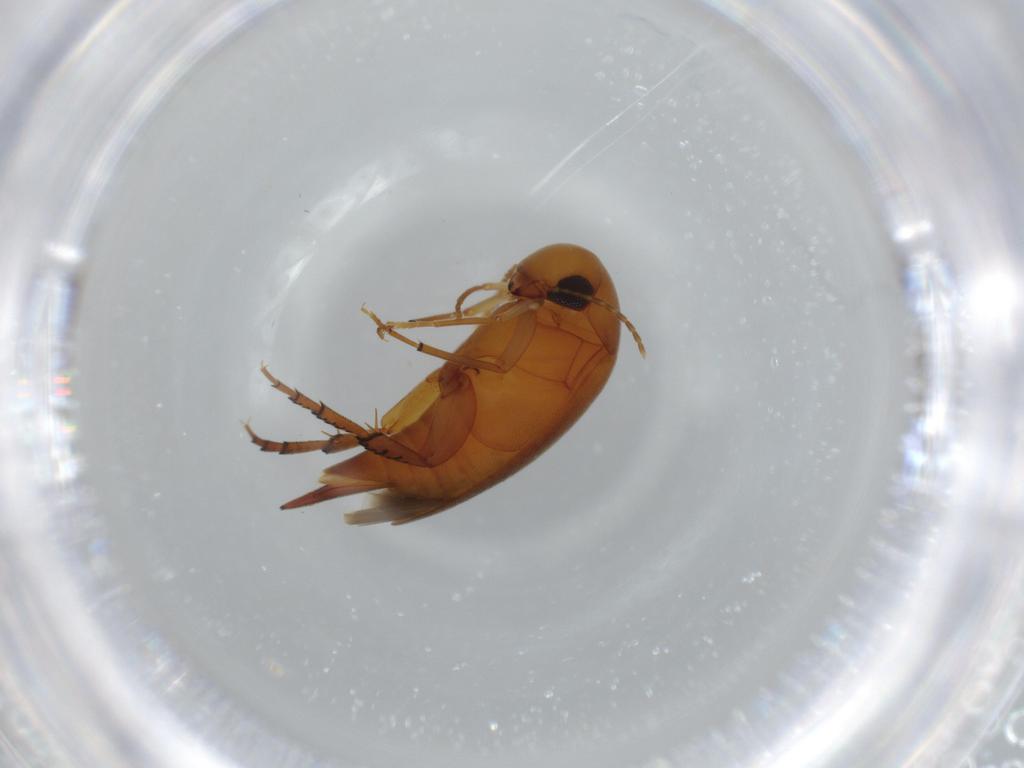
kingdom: Animalia
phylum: Arthropoda
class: Insecta
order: Coleoptera
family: Mordellidae
